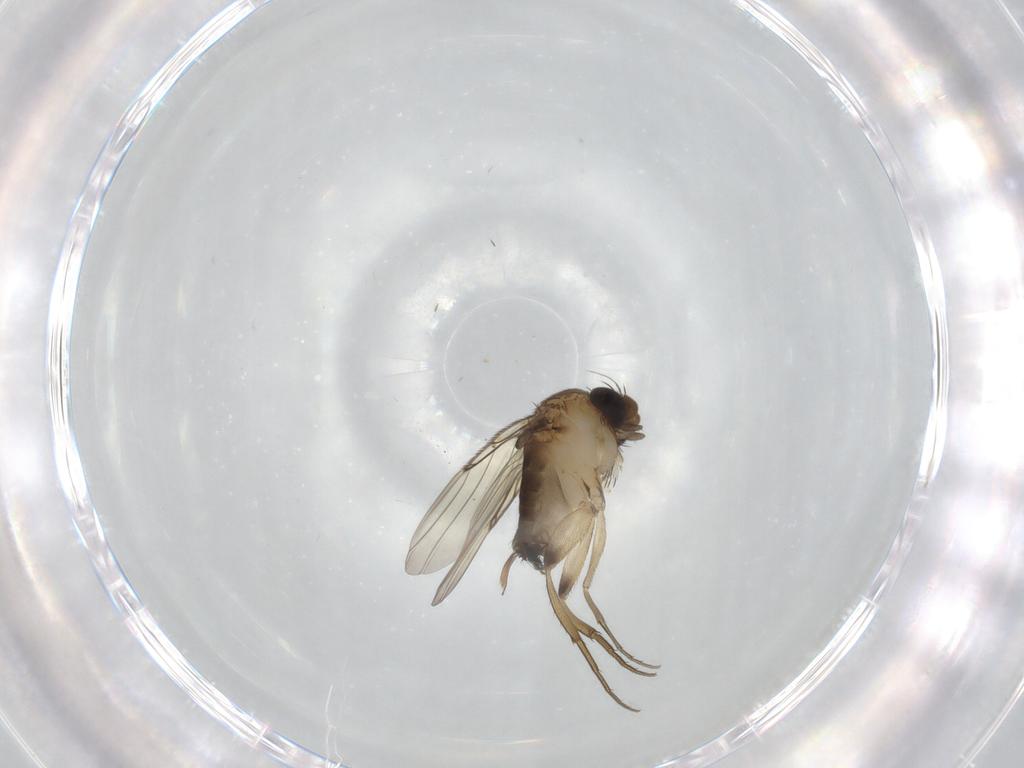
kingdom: Animalia
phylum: Arthropoda
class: Insecta
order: Diptera
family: Phoridae
